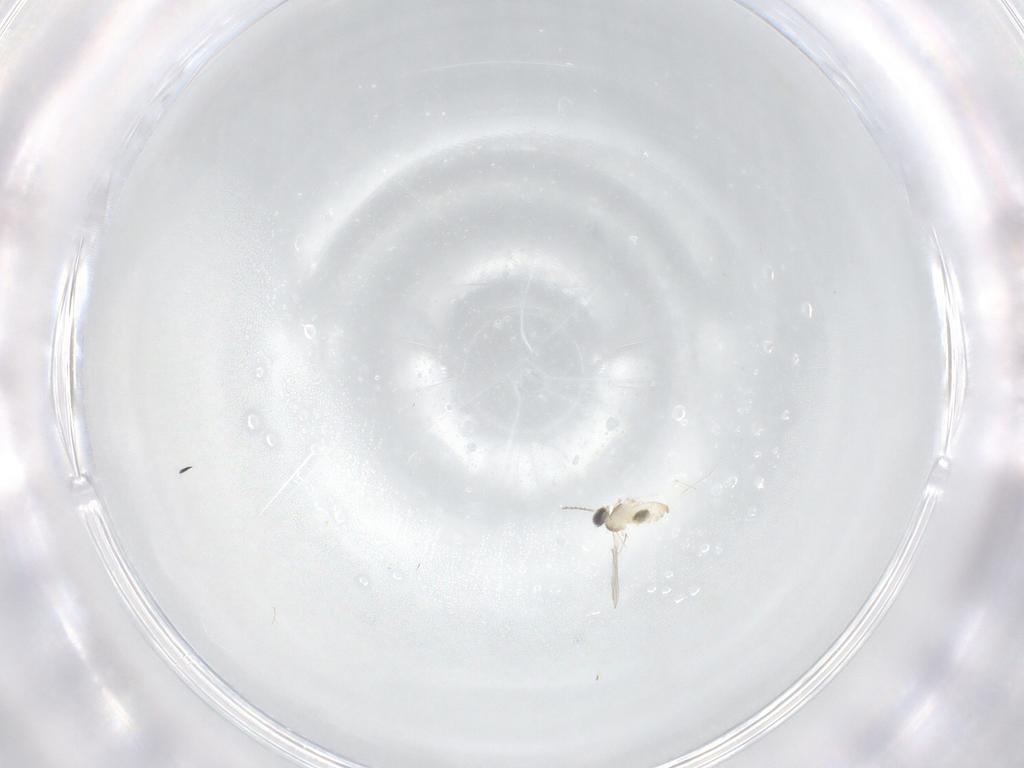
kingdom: Animalia
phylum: Arthropoda
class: Insecta
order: Diptera
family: Cecidomyiidae
